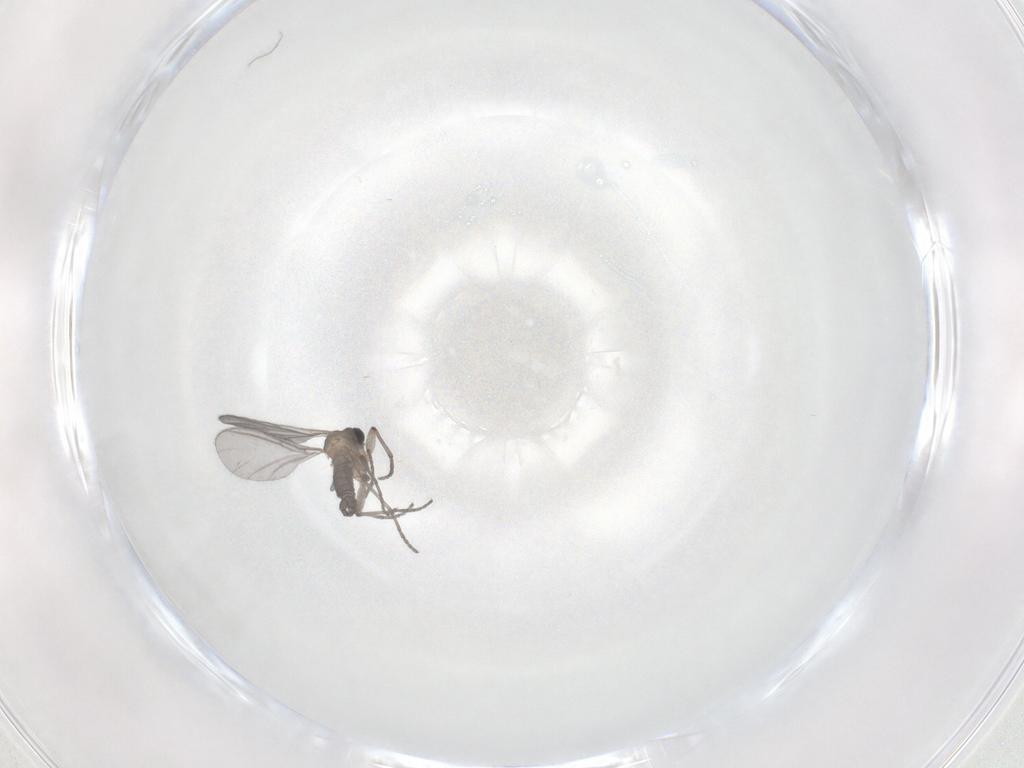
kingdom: Animalia
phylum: Arthropoda
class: Insecta
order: Diptera
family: Sciaridae
